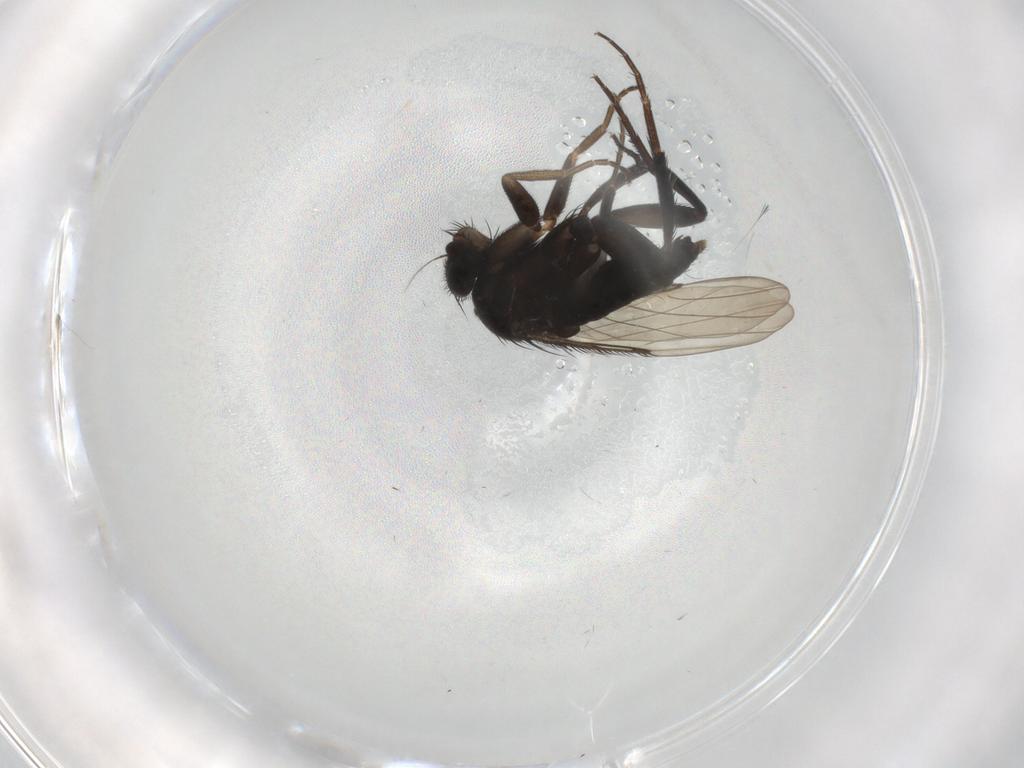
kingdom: Animalia
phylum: Arthropoda
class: Insecta
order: Diptera
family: Phoridae
